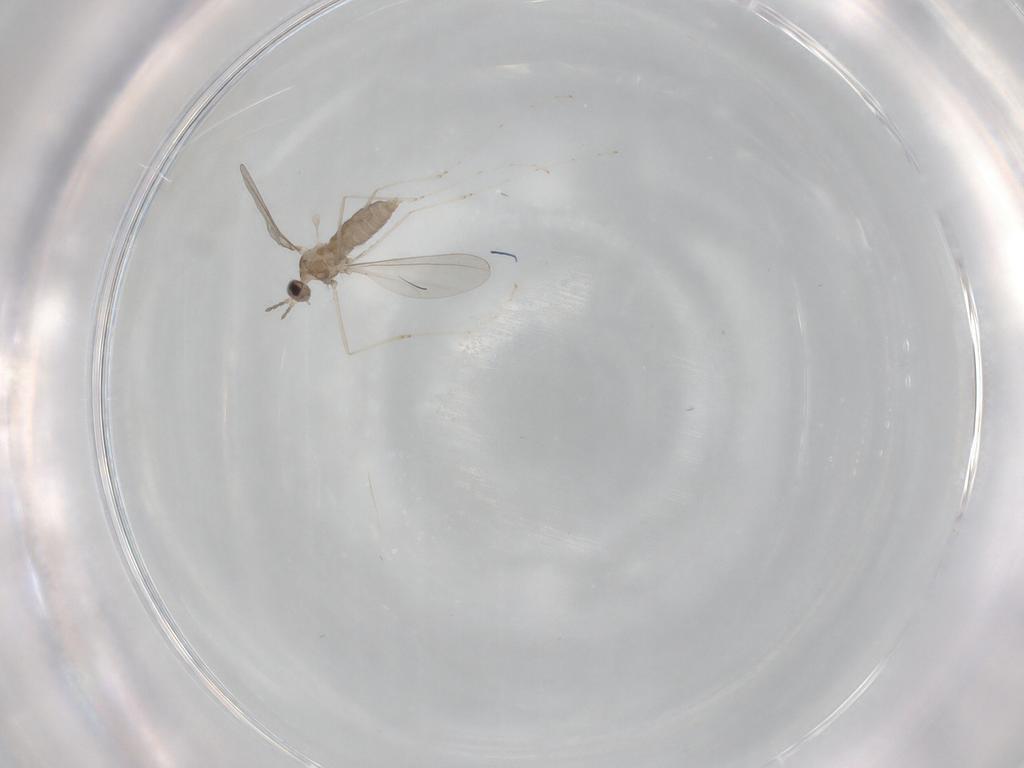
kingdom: Animalia
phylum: Arthropoda
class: Insecta
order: Diptera
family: Cecidomyiidae
